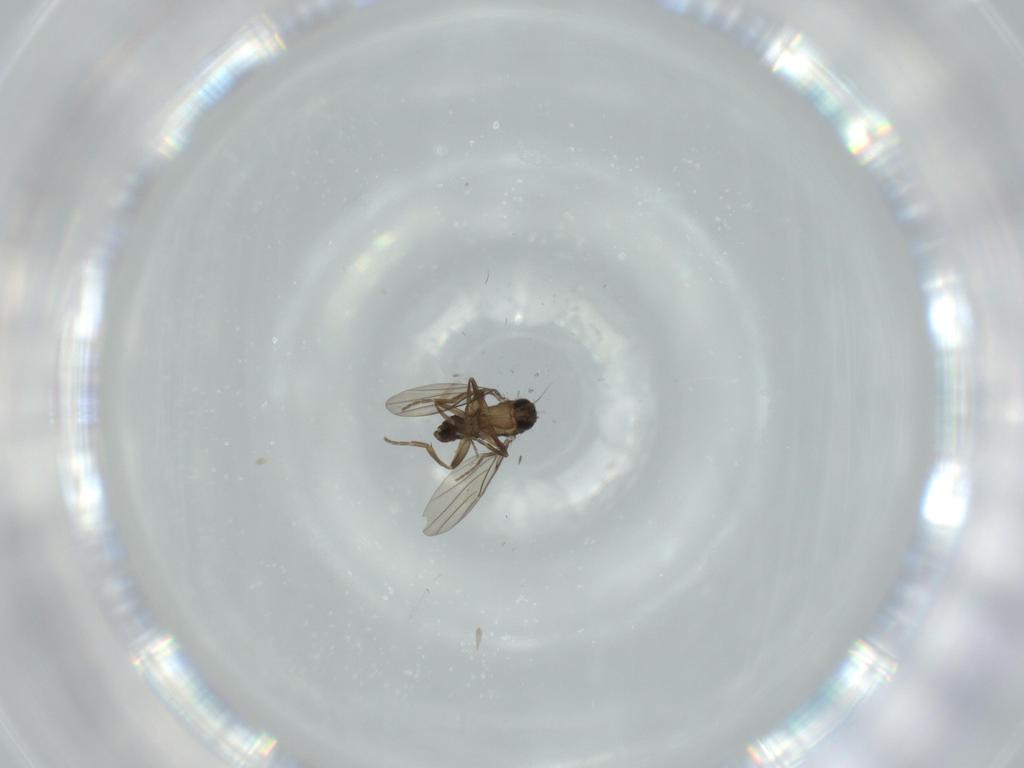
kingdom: Animalia
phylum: Arthropoda
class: Insecta
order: Diptera
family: Phoridae
